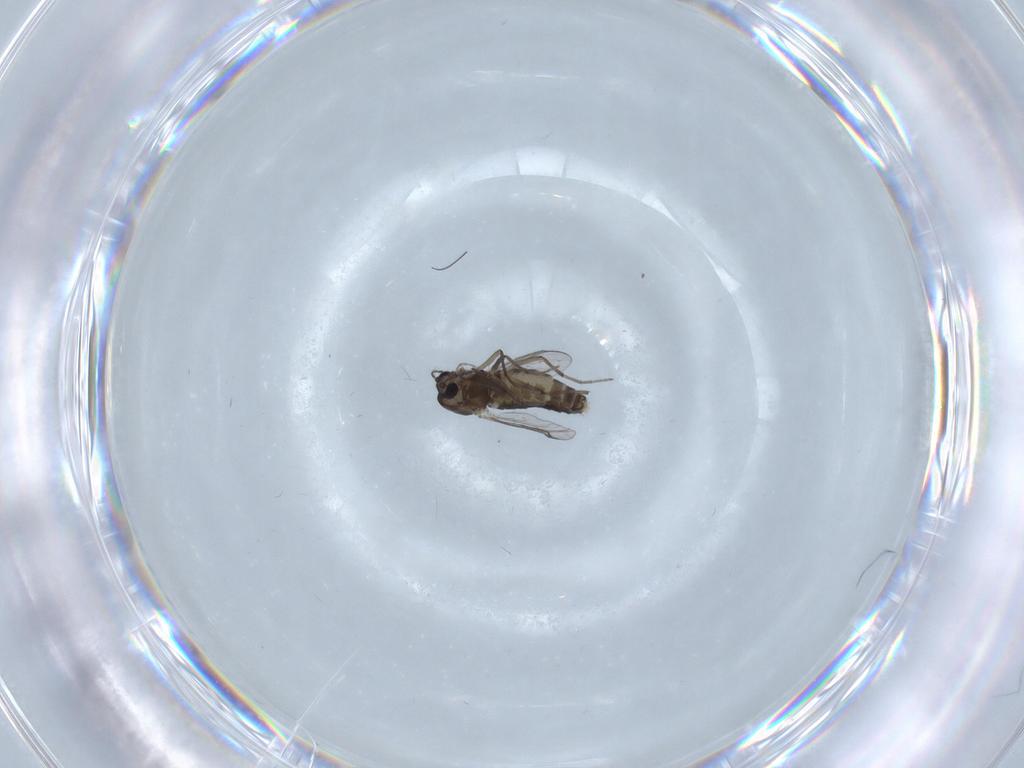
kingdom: Animalia
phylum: Arthropoda
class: Insecta
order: Diptera
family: Chironomidae
